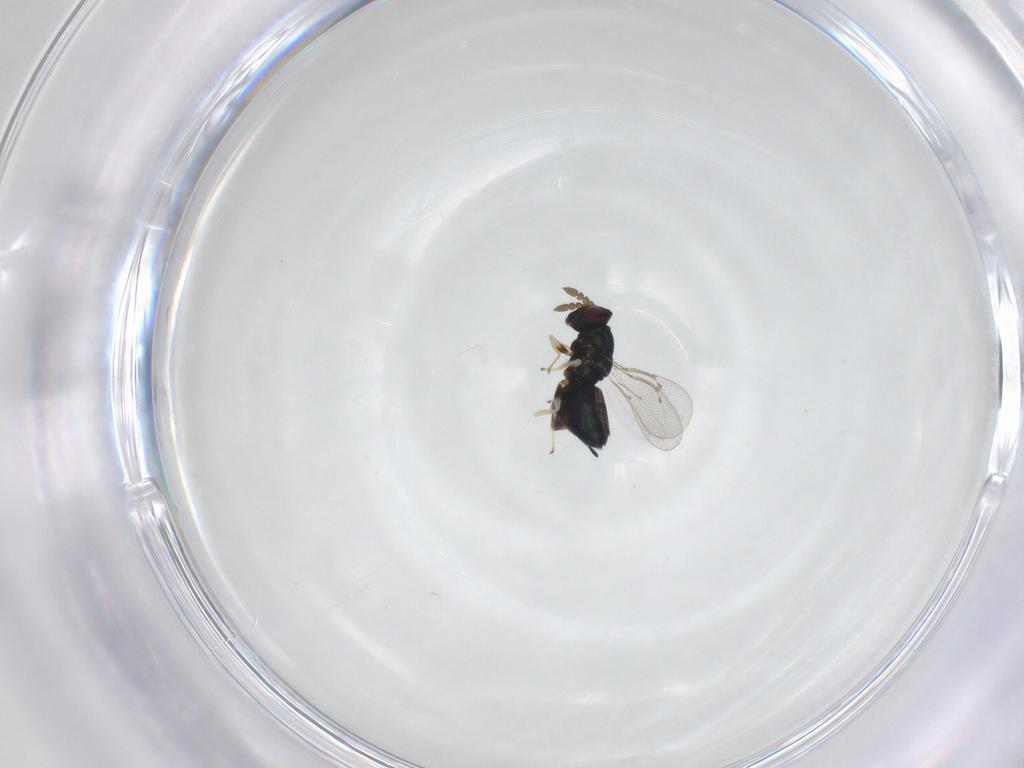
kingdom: Animalia
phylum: Arthropoda
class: Insecta
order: Hymenoptera
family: Eulophidae
